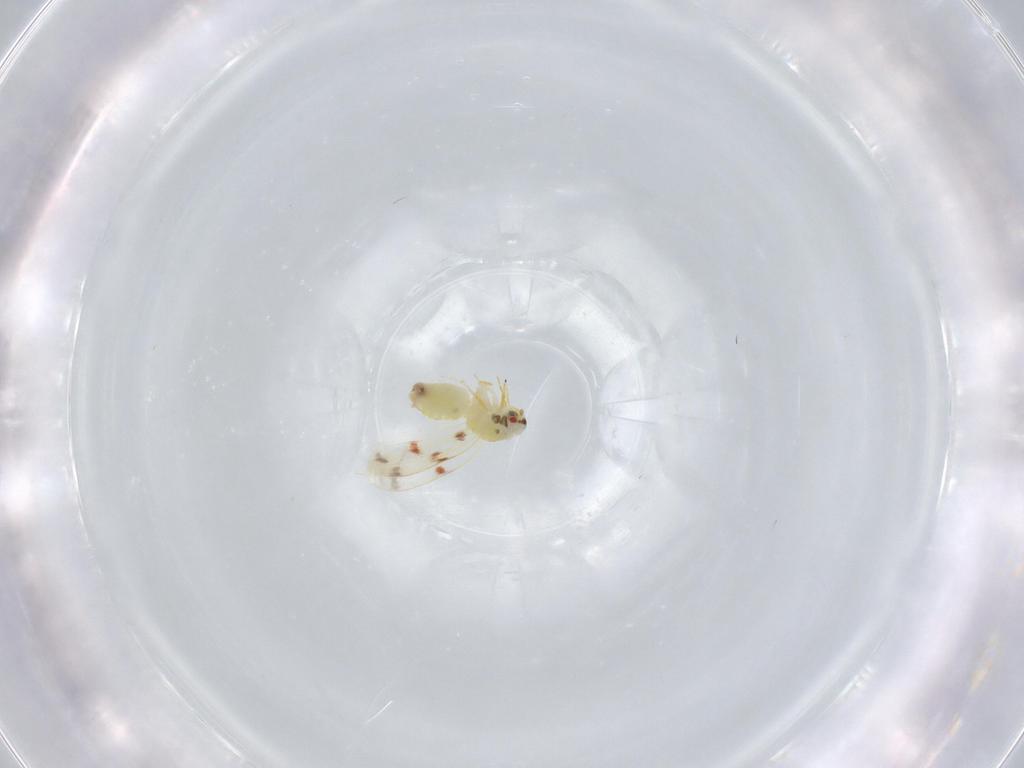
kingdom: Animalia
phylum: Arthropoda
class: Insecta
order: Hemiptera
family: Aleyrodidae
